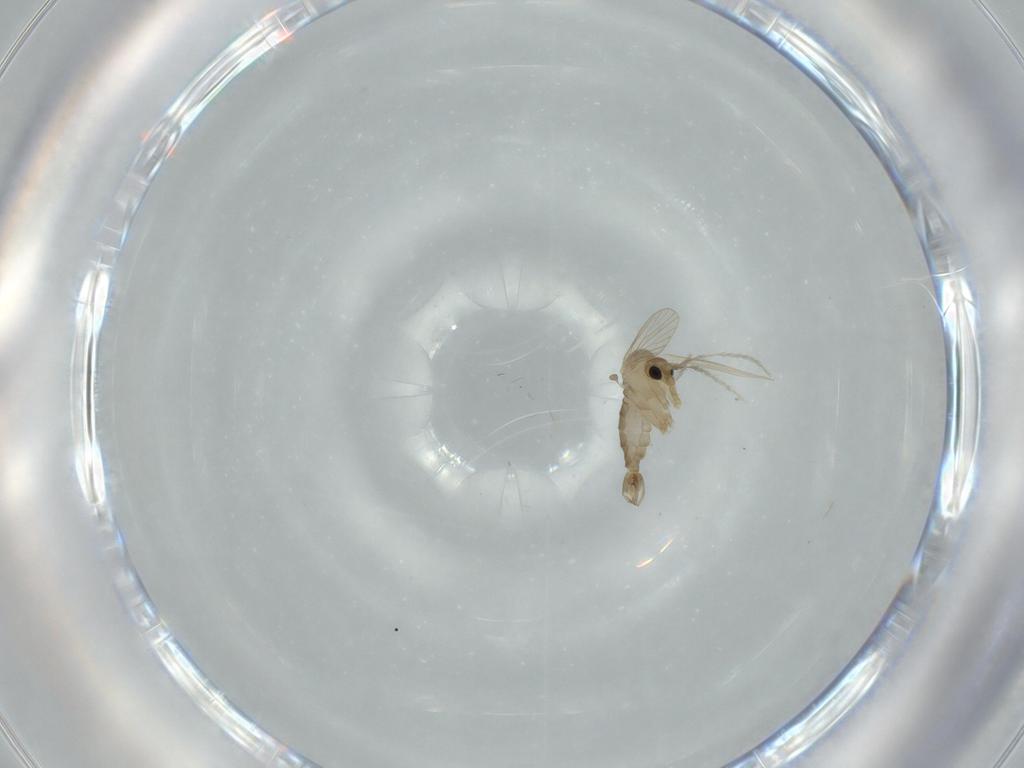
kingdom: Animalia
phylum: Arthropoda
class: Insecta
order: Diptera
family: Psychodidae
